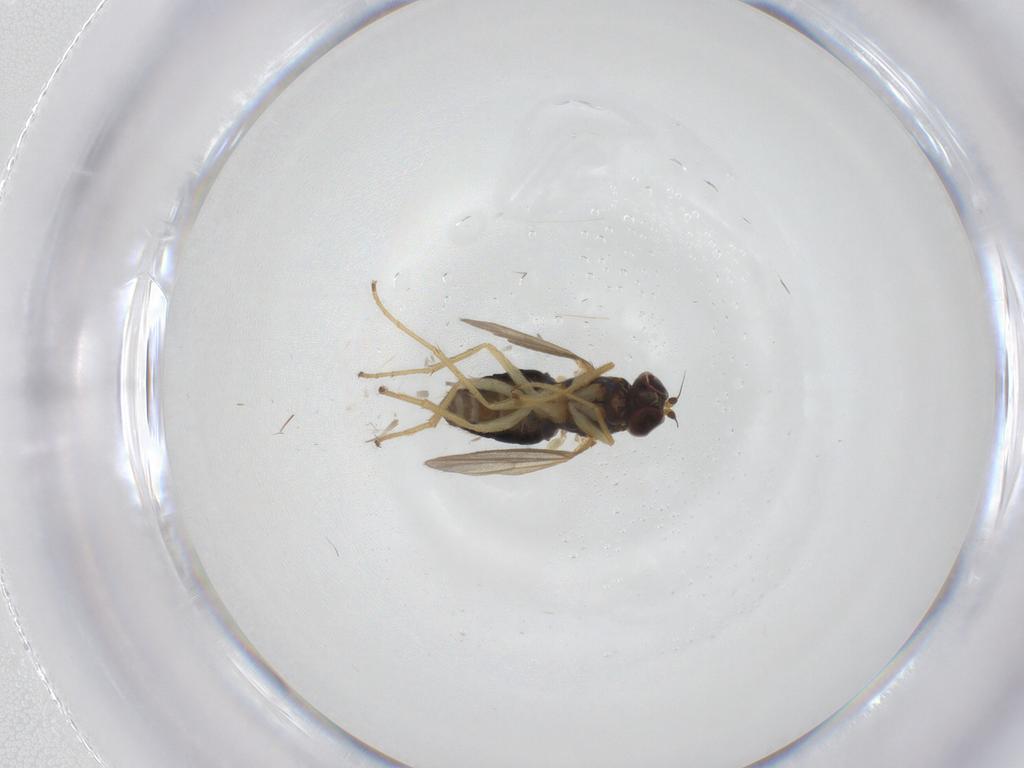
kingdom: Animalia
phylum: Arthropoda
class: Insecta
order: Diptera
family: Dolichopodidae
